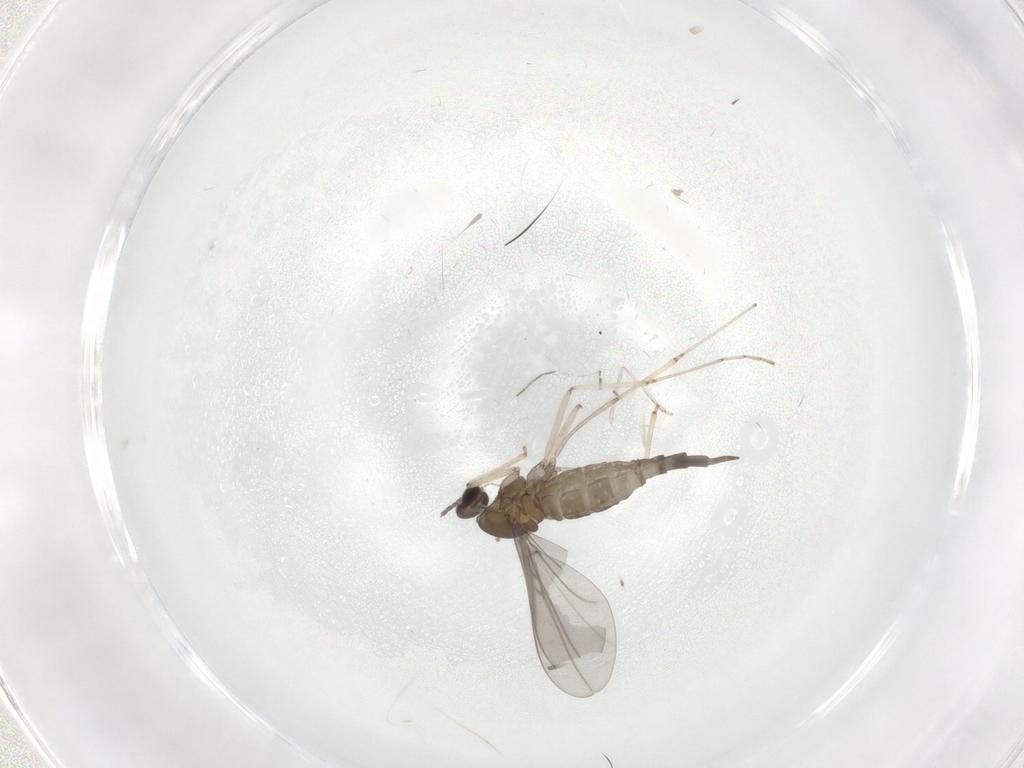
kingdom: Animalia
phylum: Arthropoda
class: Insecta
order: Diptera
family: Cecidomyiidae
